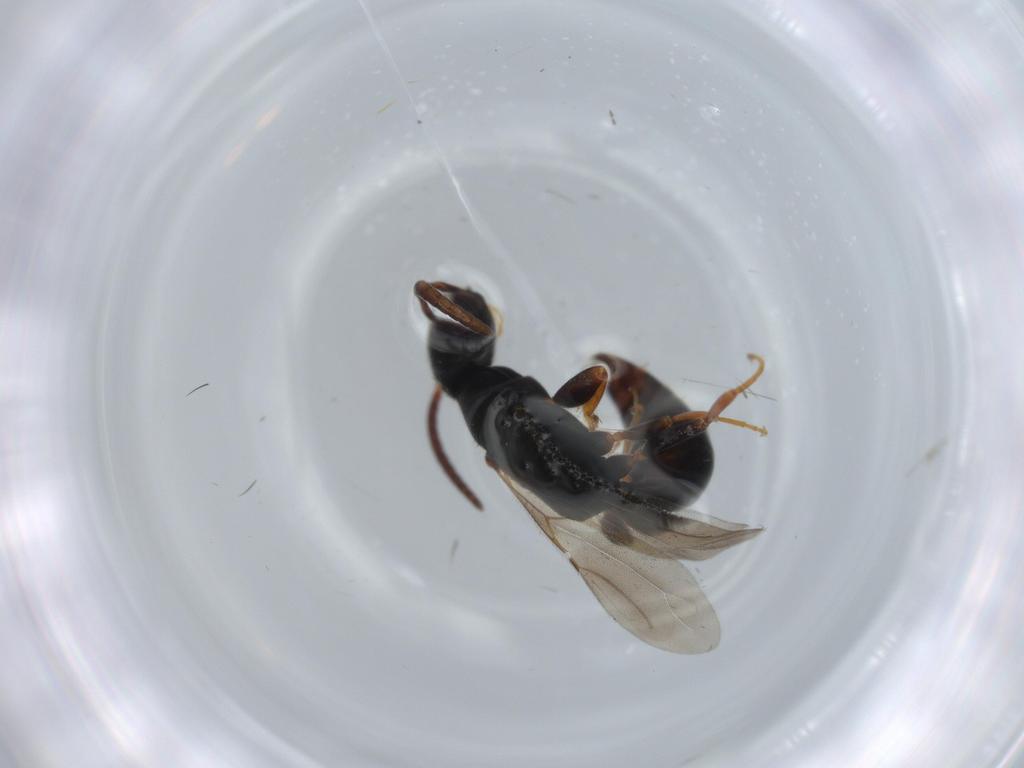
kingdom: Animalia
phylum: Arthropoda
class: Insecta
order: Hymenoptera
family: Bethylidae
